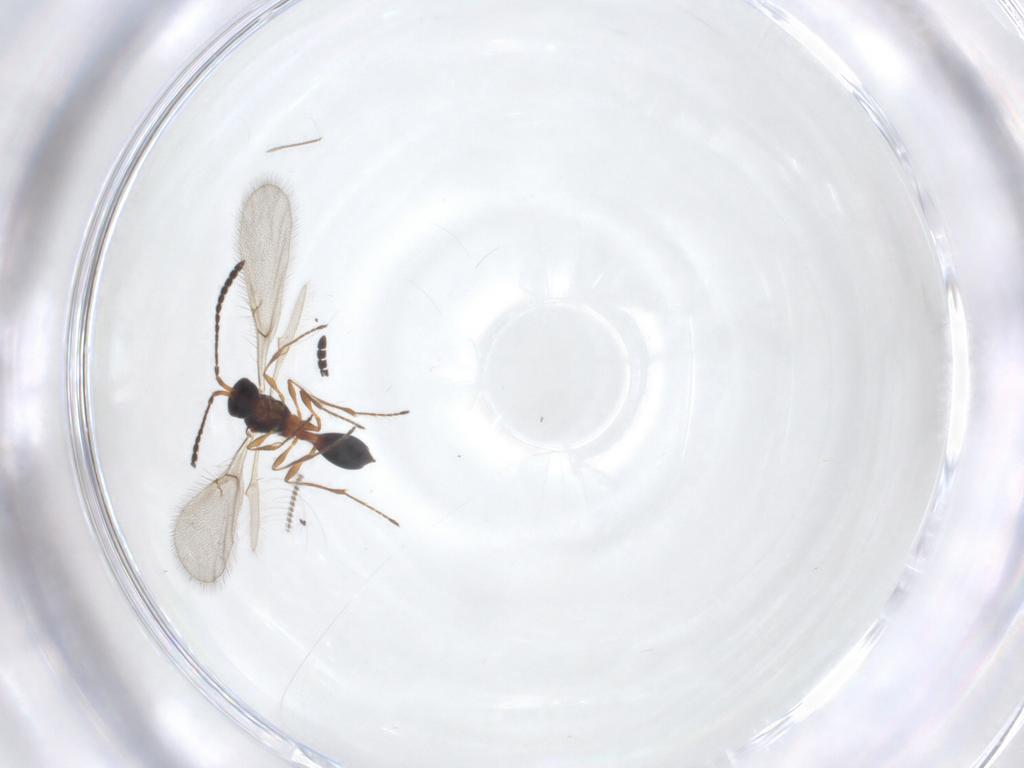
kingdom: Animalia
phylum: Arthropoda
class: Insecta
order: Hymenoptera
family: Diapriidae
